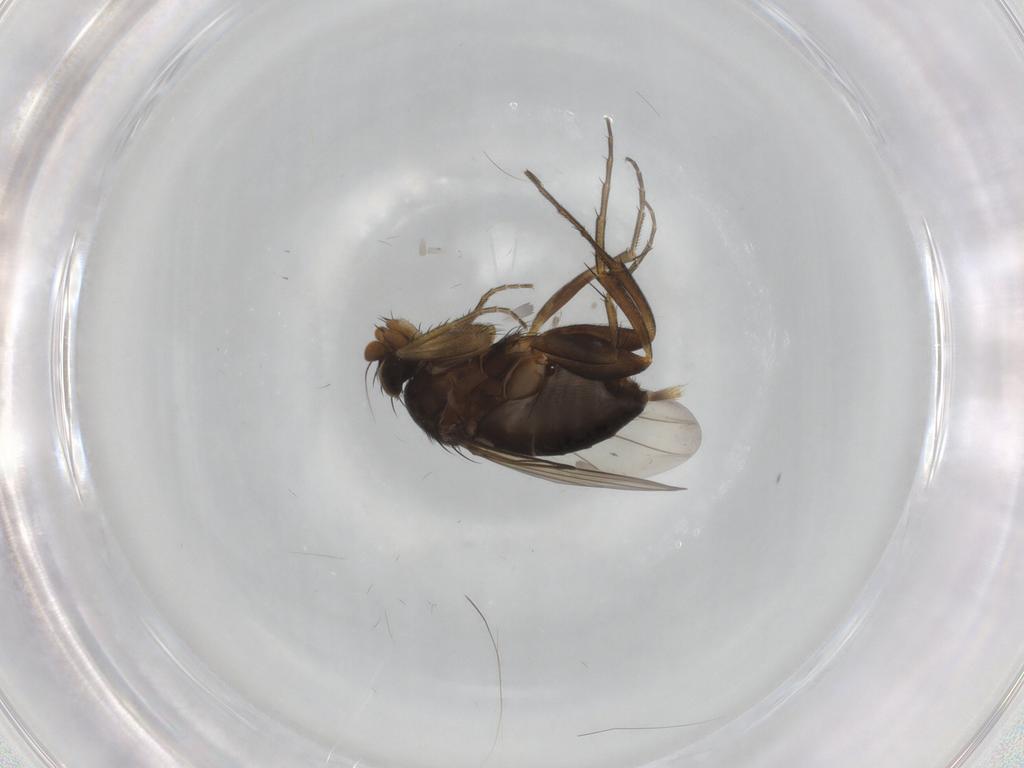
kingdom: Animalia
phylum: Arthropoda
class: Insecta
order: Diptera
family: Phoridae
